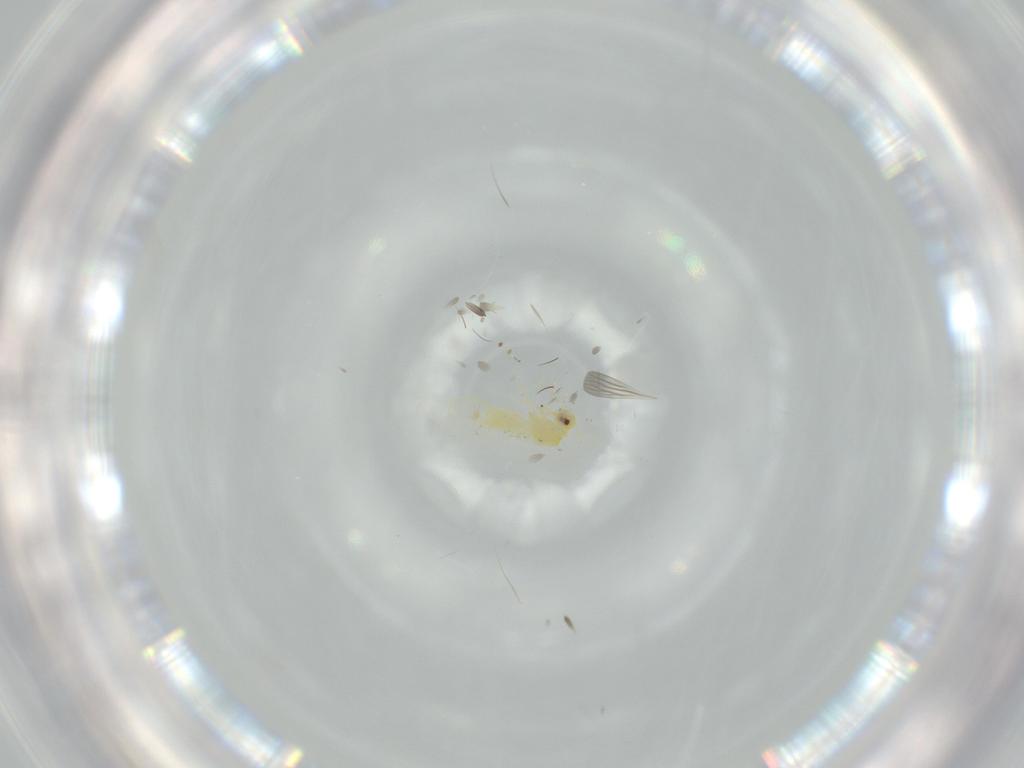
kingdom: Animalia
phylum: Arthropoda
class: Insecta
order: Hemiptera
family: Aleyrodidae
